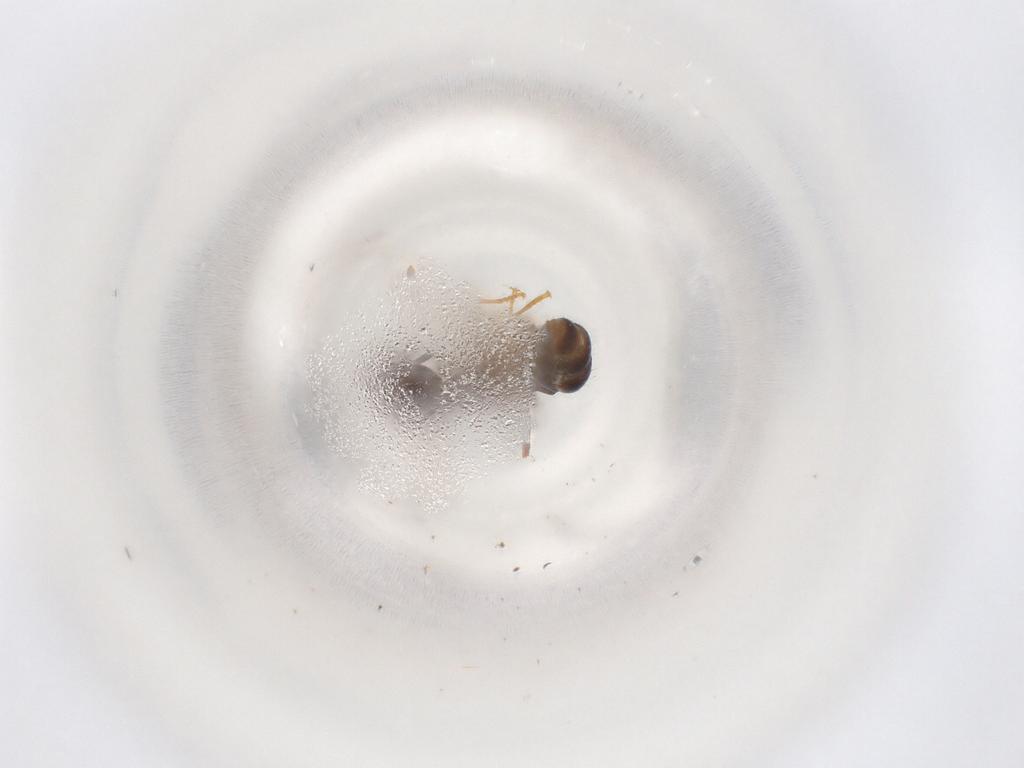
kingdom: Animalia
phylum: Arthropoda
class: Insecta
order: Hymenoptera
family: Formicidae
